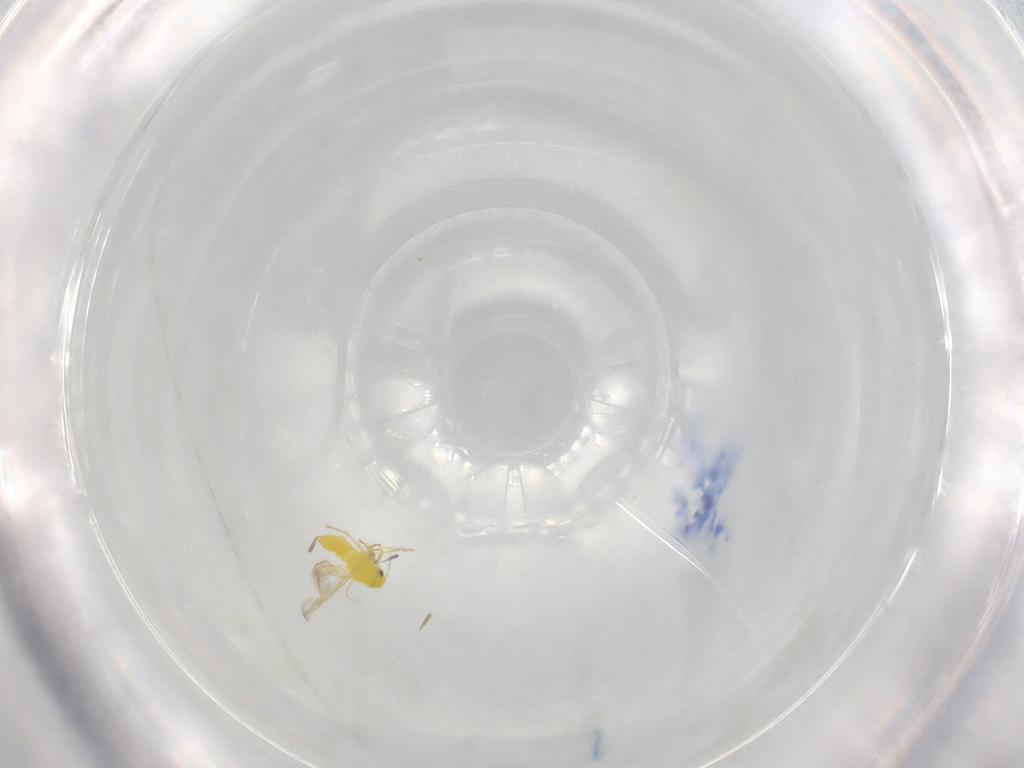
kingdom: Animalia
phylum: Arthropoda
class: Insecta
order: Hemiptera
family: Aleyrodidae
